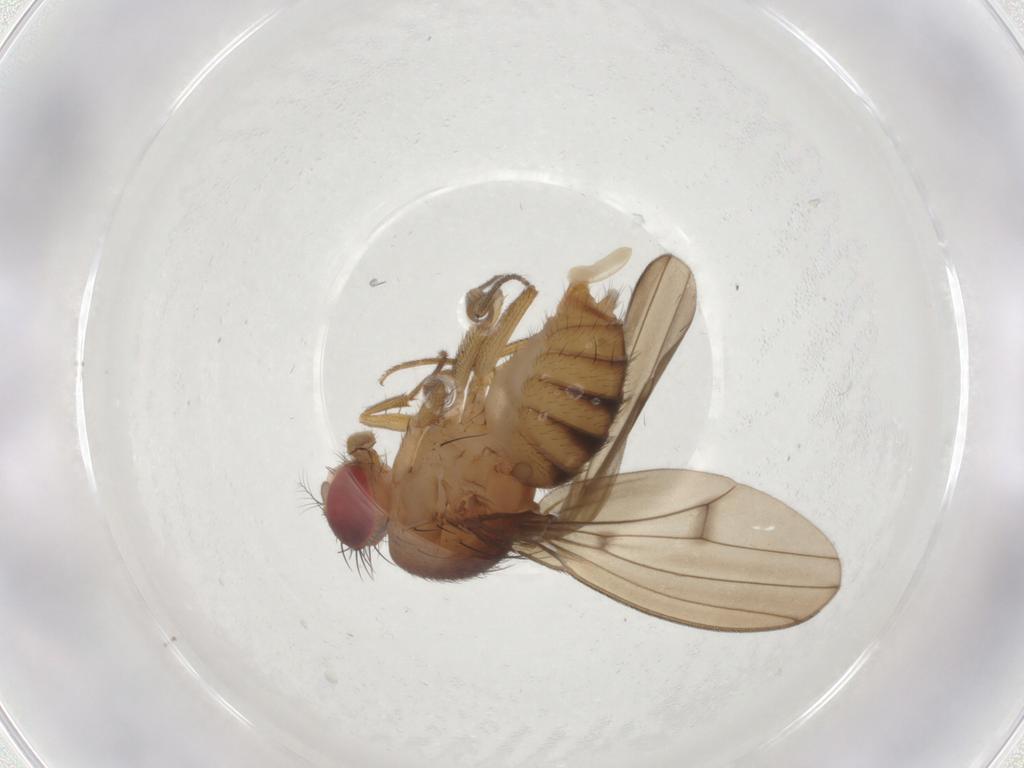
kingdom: Animalia
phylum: Arthropoda
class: Insecta
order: Diptera
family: Drosophilidae
